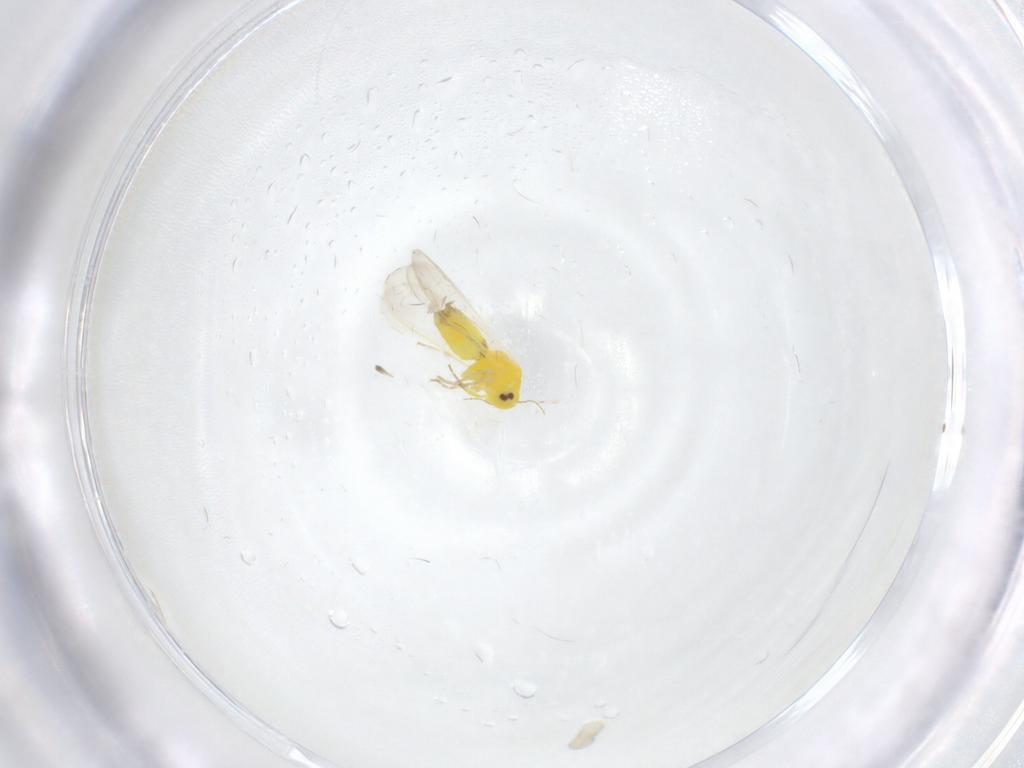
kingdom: Animalia
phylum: Arthropoda
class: Insecta
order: Hemiptera
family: Aleyrodidae
